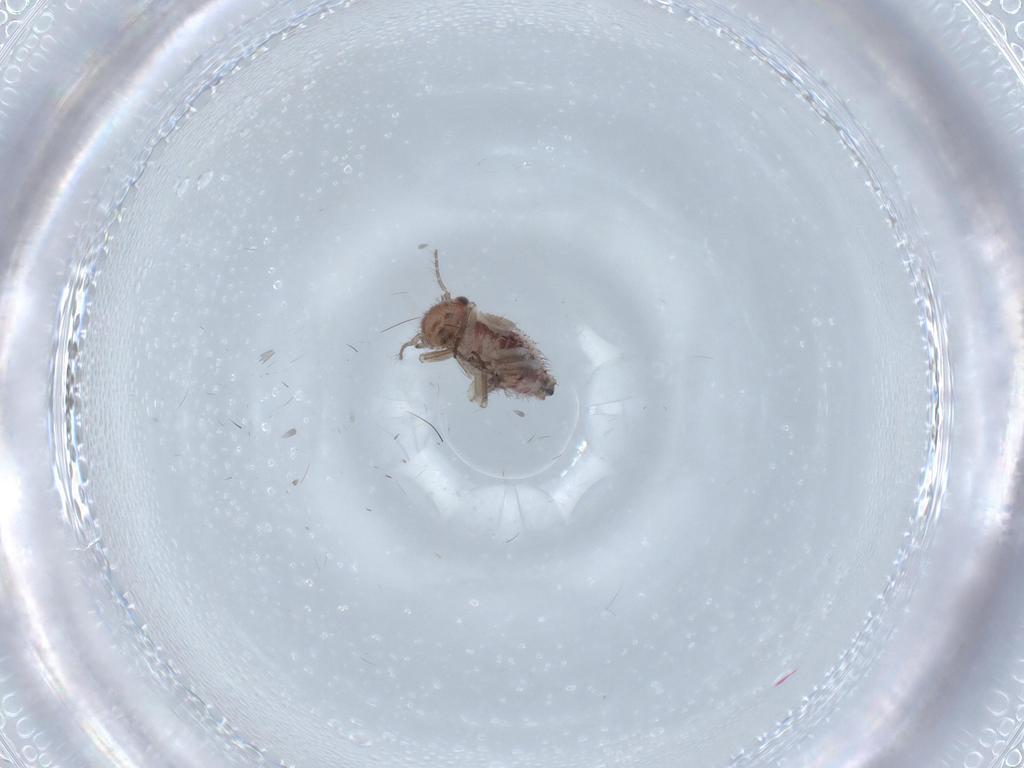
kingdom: Animalia
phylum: Arthropoda
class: Insecta
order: Psocodea
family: Caeciliusidae
